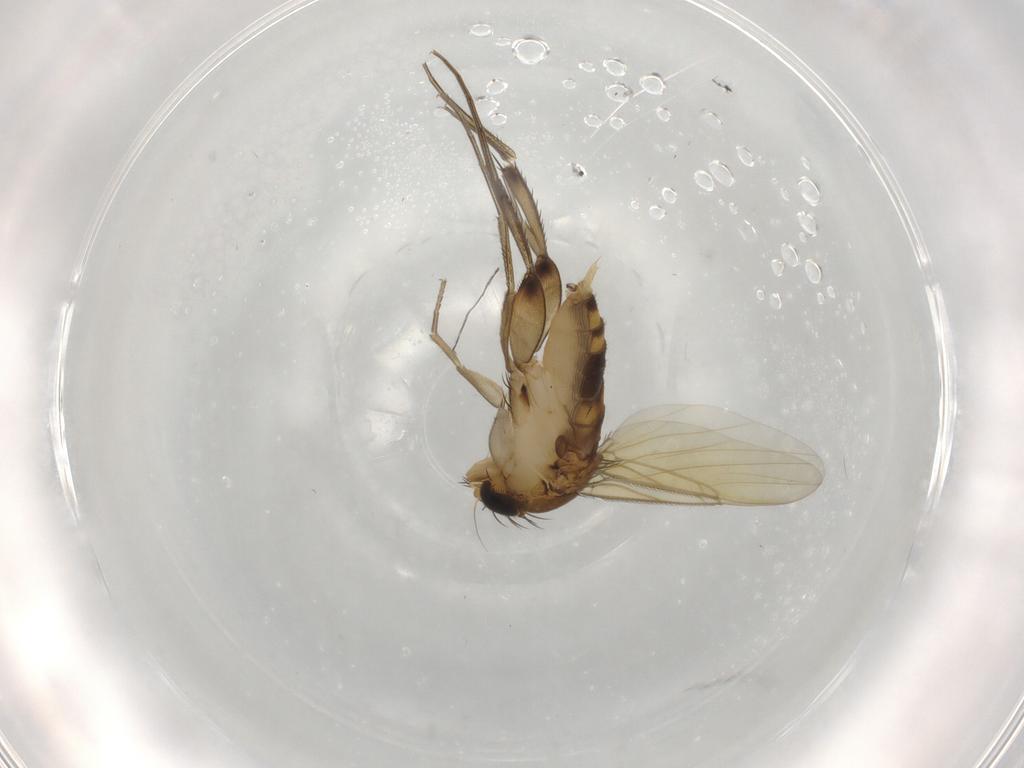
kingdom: Animalia
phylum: Arthropoda
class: Insecta
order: Diptera
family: Phoridae
